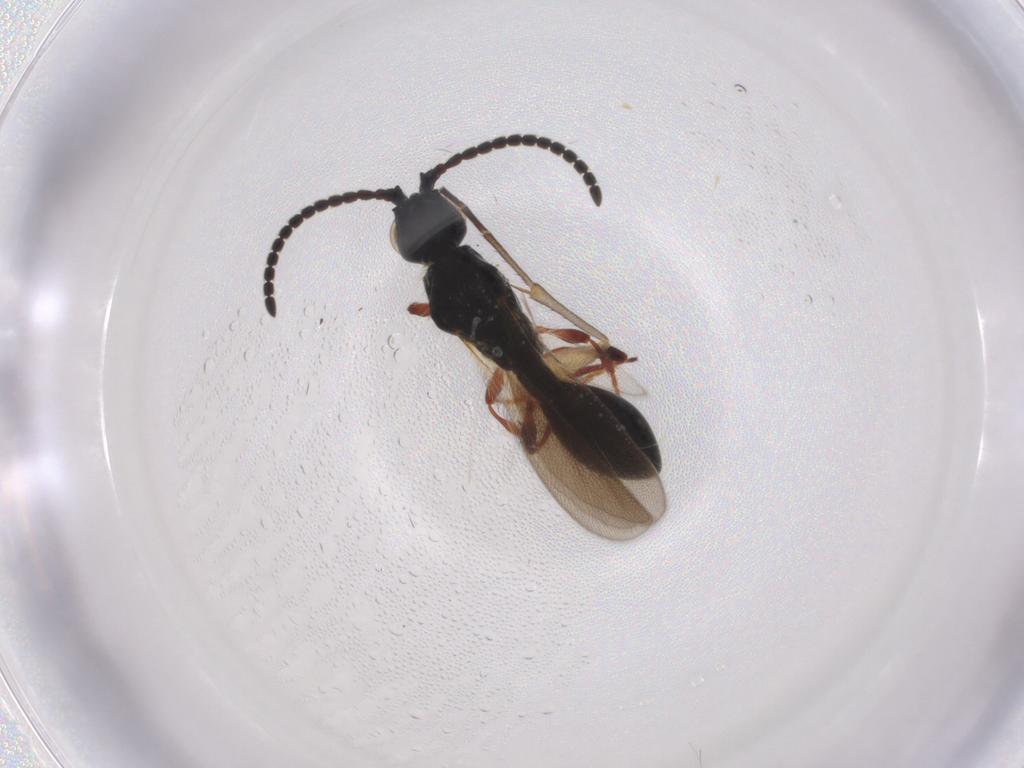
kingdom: Animalia
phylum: Arthropoda
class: Insecta
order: Hymenoptera
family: Diapriidae
